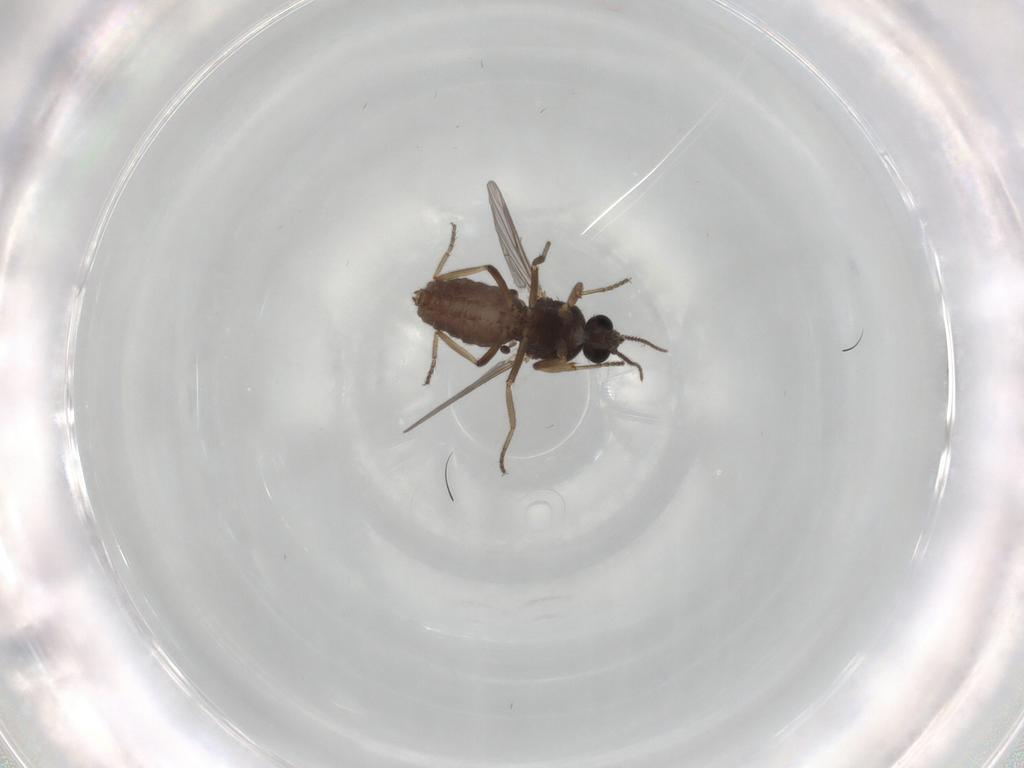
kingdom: Animalia
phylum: Arthropoda
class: Insecta
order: Diptera
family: Ceratopogonidae
